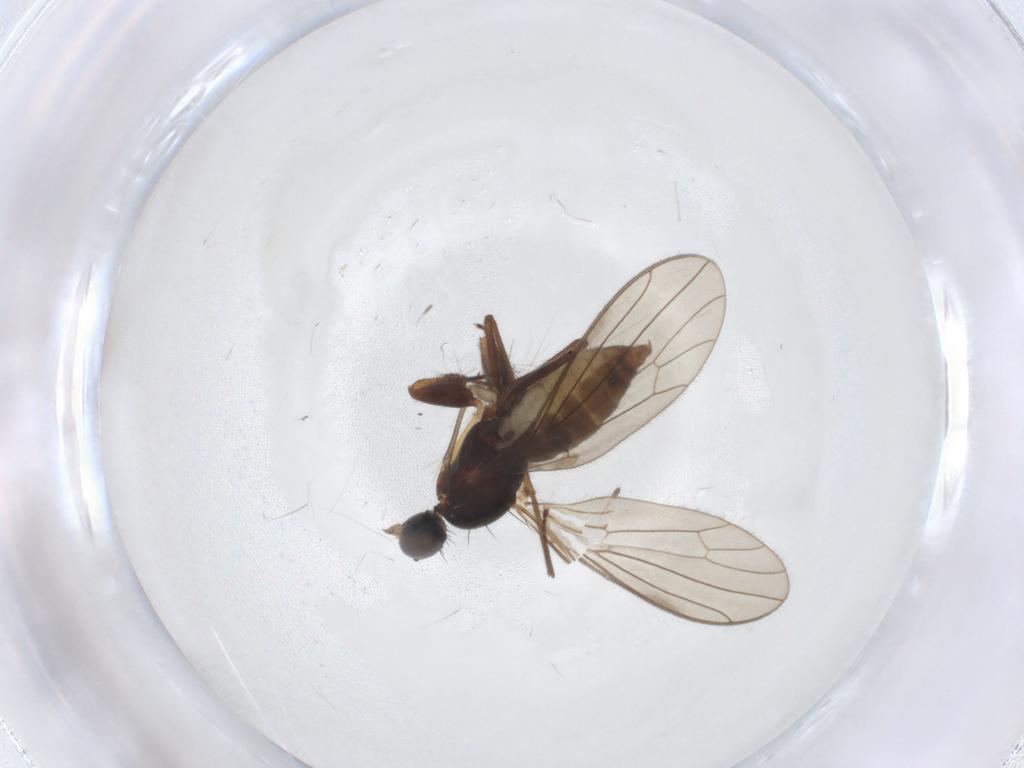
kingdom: Animalia
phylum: Arthropoda
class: Insecta
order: Diptera
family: Empididae
